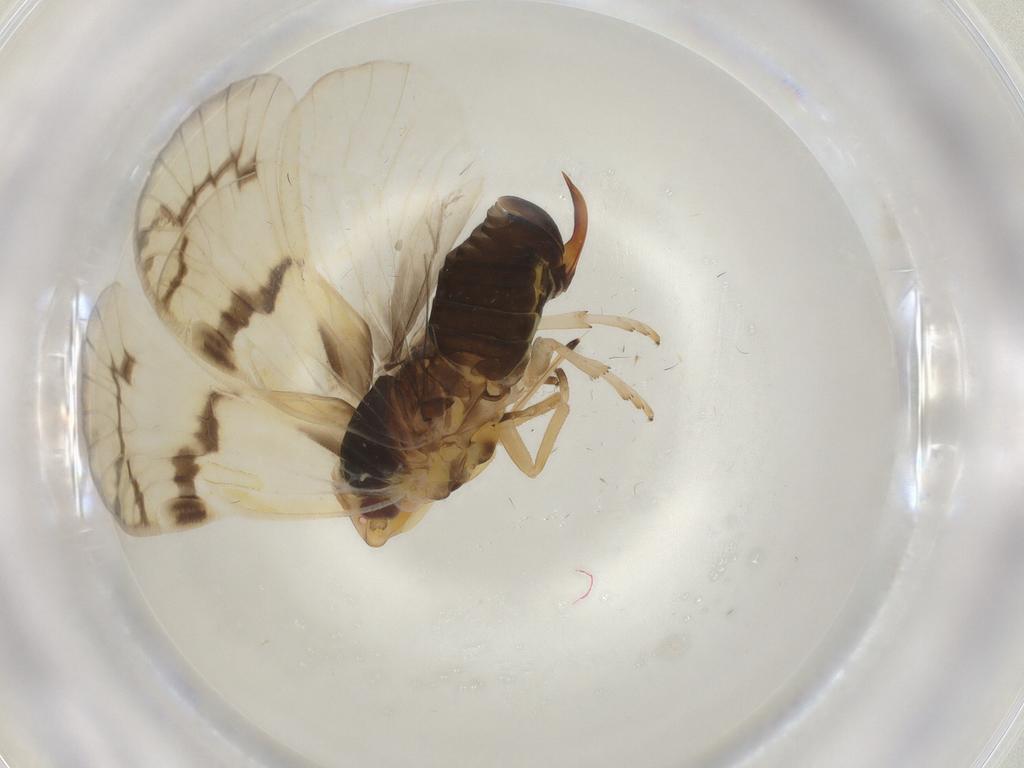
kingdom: Animalia
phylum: Arthropoda
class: Insecta
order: Hemiptera
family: Cixiidae
